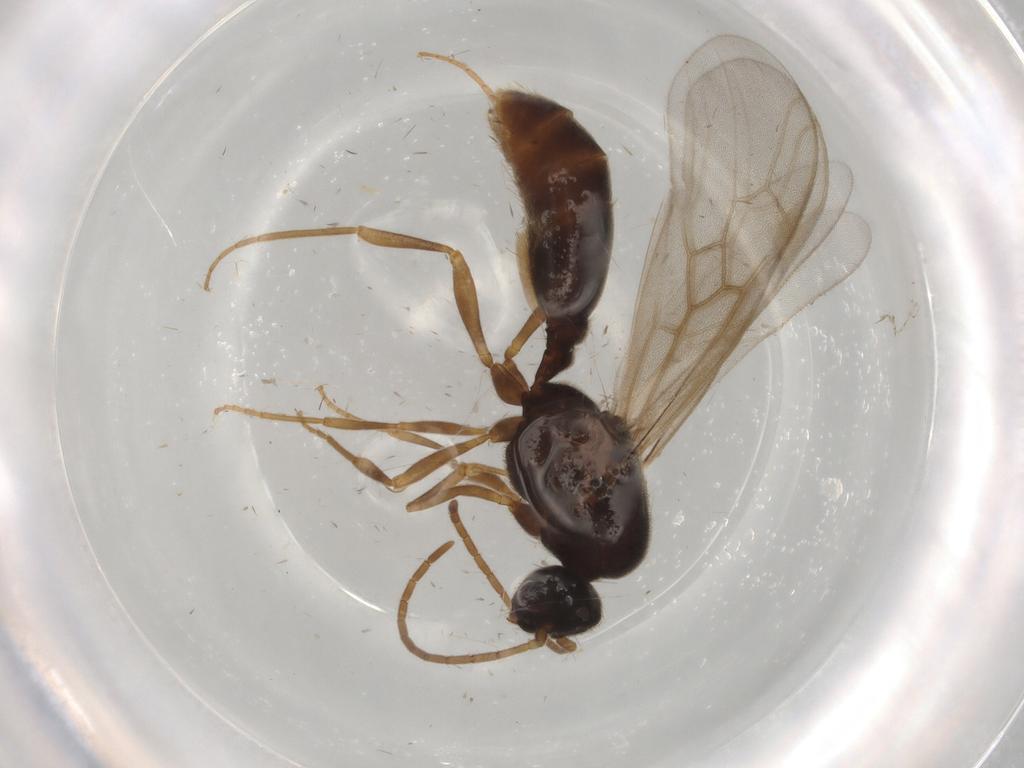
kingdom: Animalia
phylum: Arthropoda
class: Insecta
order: Hymenoptera
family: Formicidae
